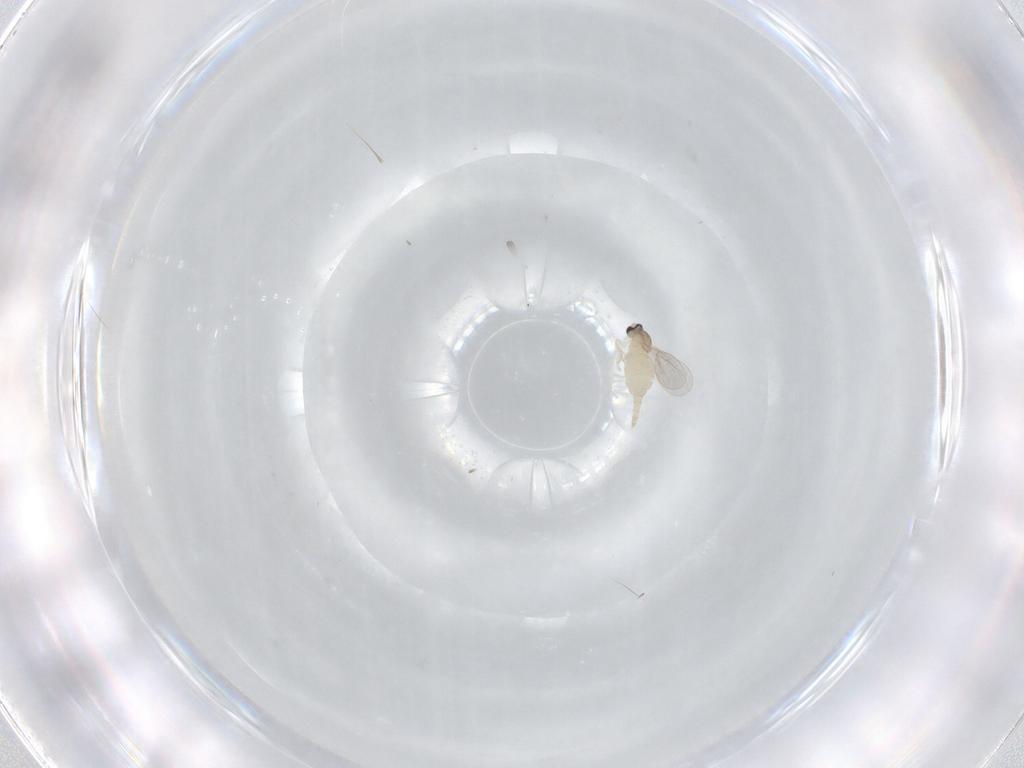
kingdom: Animalia
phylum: Arthropoda
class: Insecta
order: Diptera
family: Cecidomyiidae
